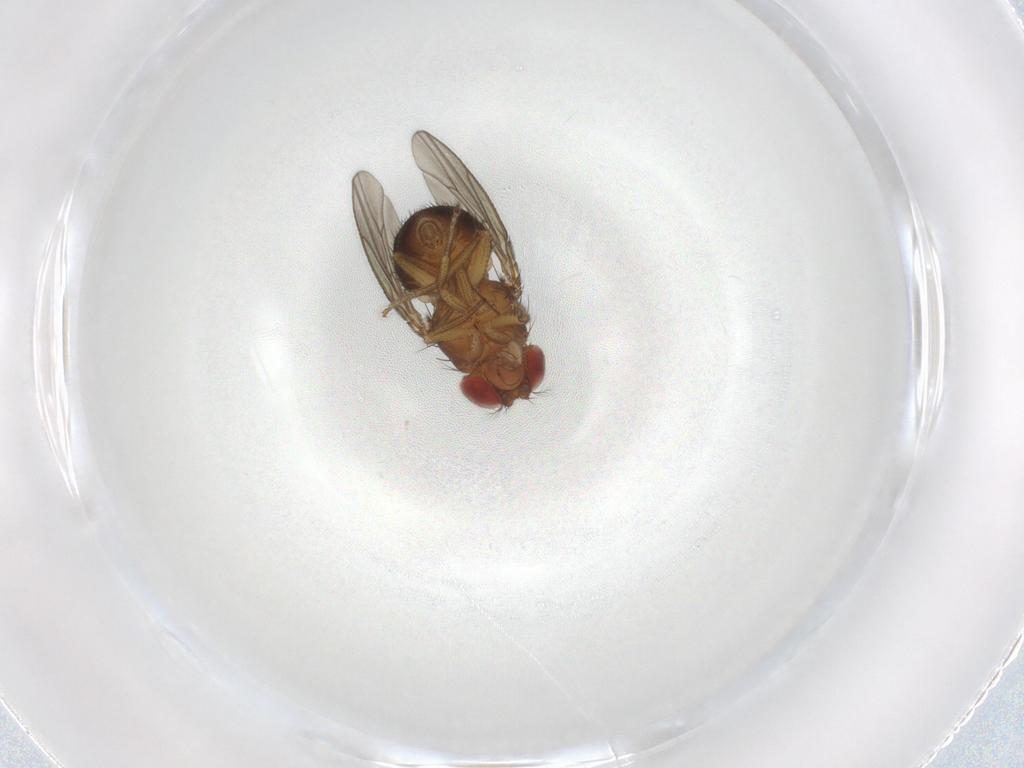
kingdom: Animalia
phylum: Arthropoda
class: Insecta
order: Diptera
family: Drosophilidae
